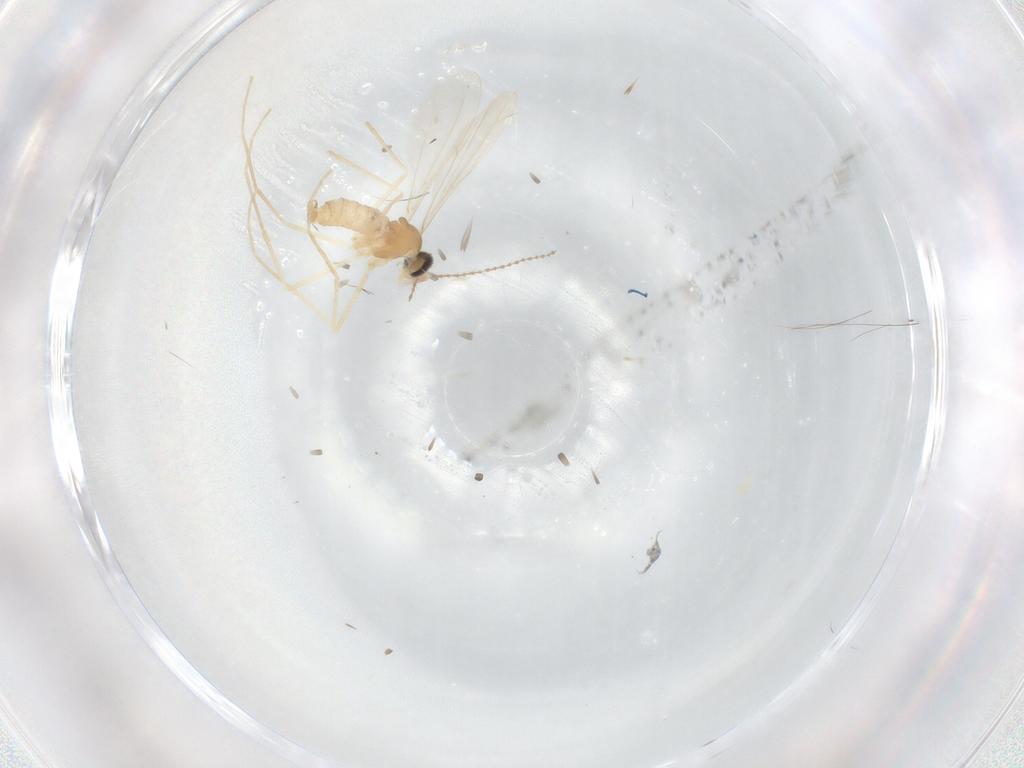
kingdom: Animalia
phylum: Arthropoda
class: Insecta
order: Diptera
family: Cecidomyiidae
